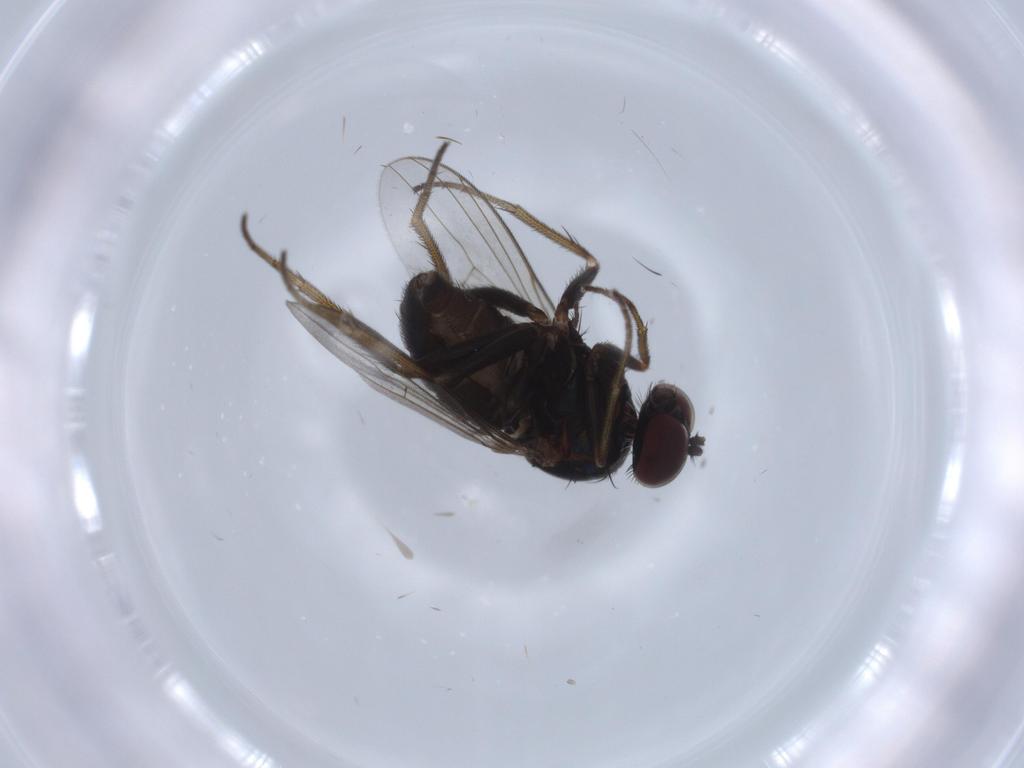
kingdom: Animalia
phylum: Arthropoda
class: Insecta
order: Diptera
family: Dolichopodidae
